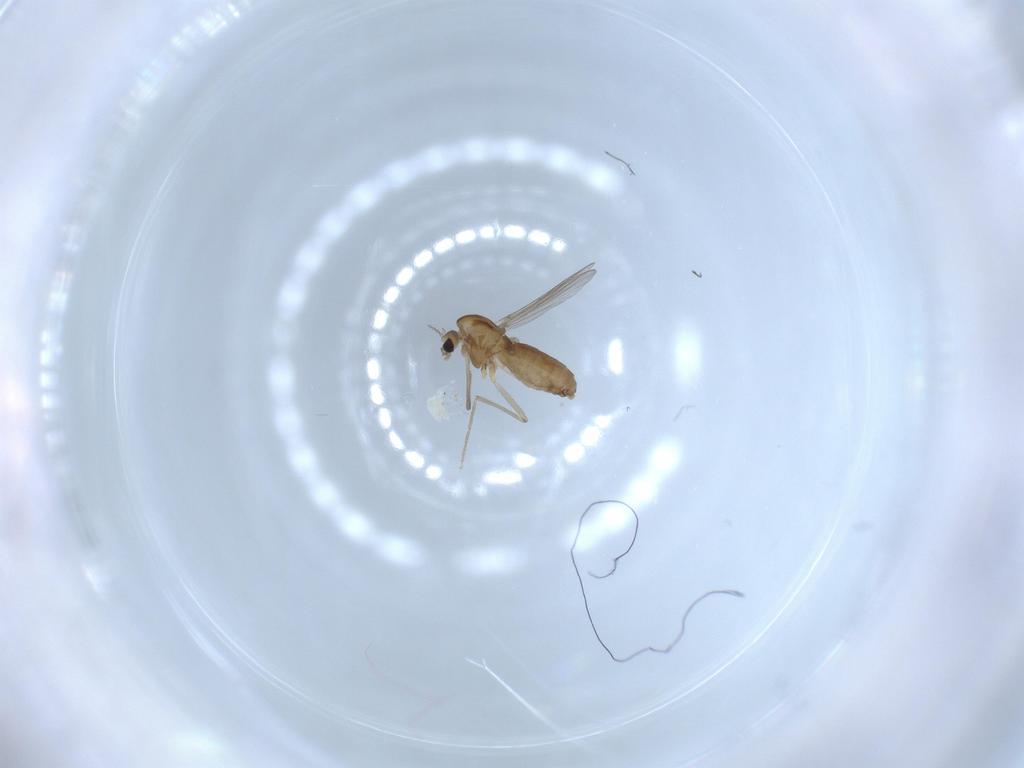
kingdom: Animalia
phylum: Arthropoda
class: Insecta
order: Diptera
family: Chironomidae
